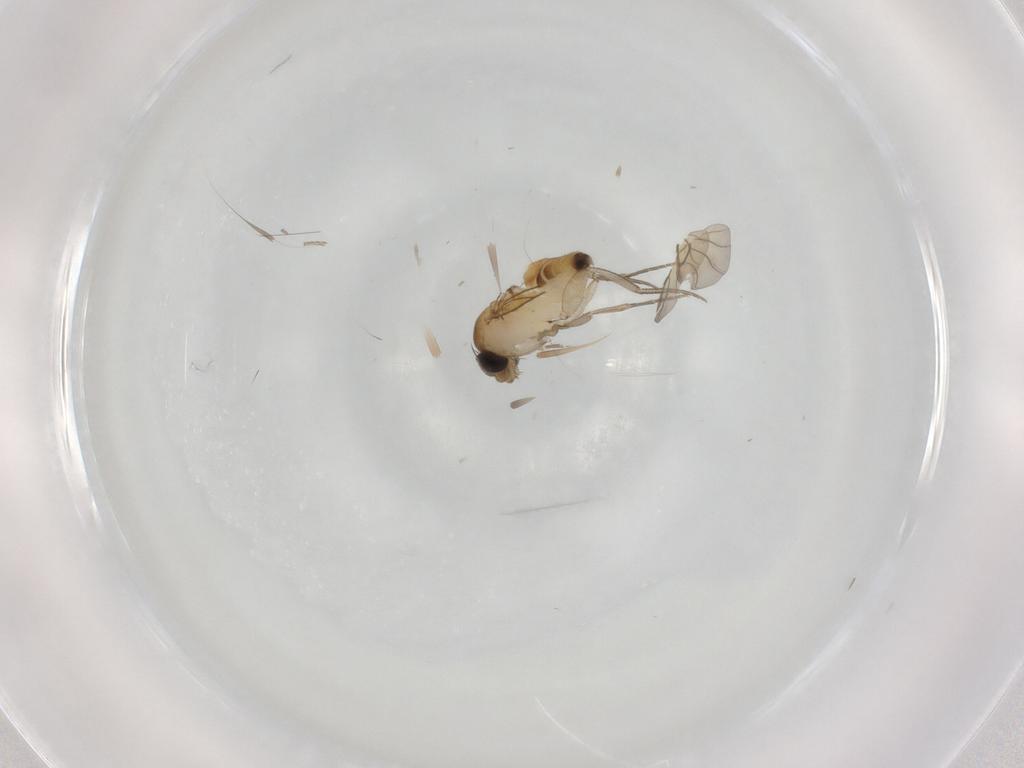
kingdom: Animalia
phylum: Arthropoda
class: Insecta
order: Diptera
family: Phoridae
